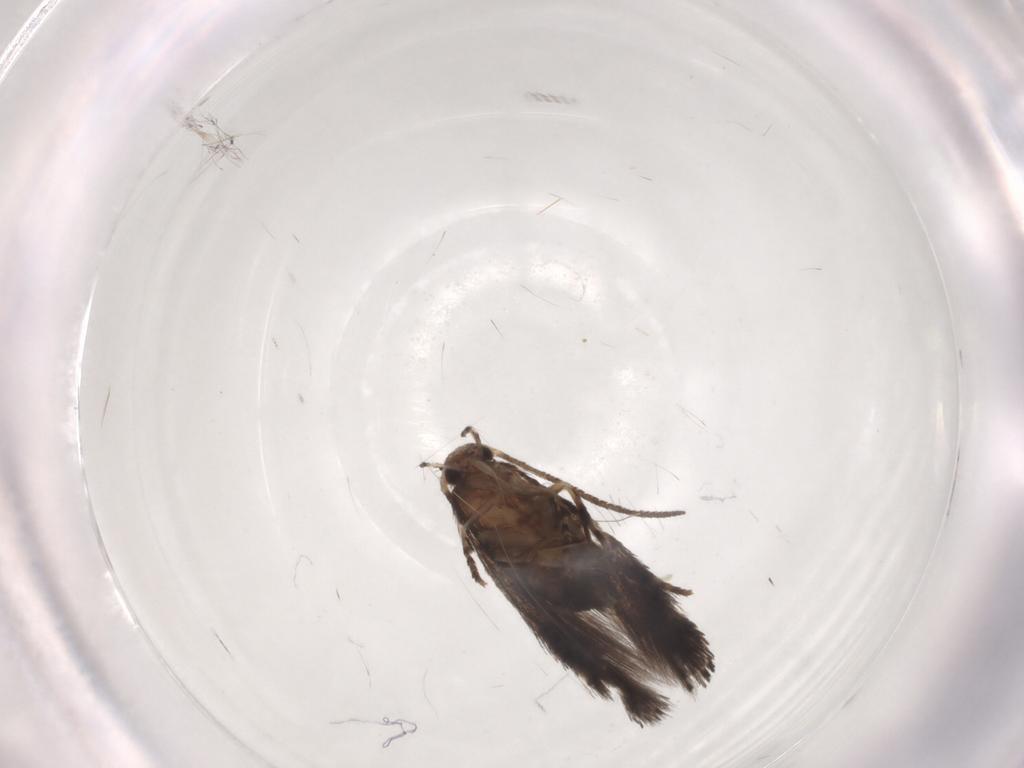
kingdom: Animalia
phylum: Arthropoda
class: Insecta
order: Lepidoptera
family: Elachistidae
